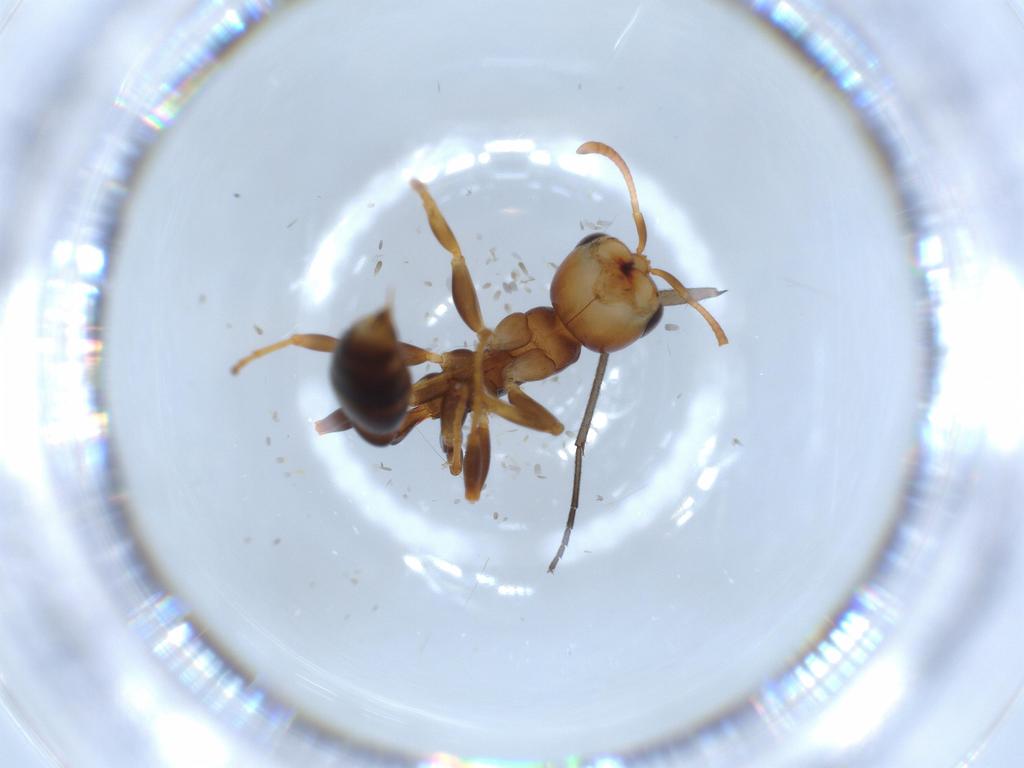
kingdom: Animalia
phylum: Arthropoda
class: Insecta
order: Hymenoptera
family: Formicidae
